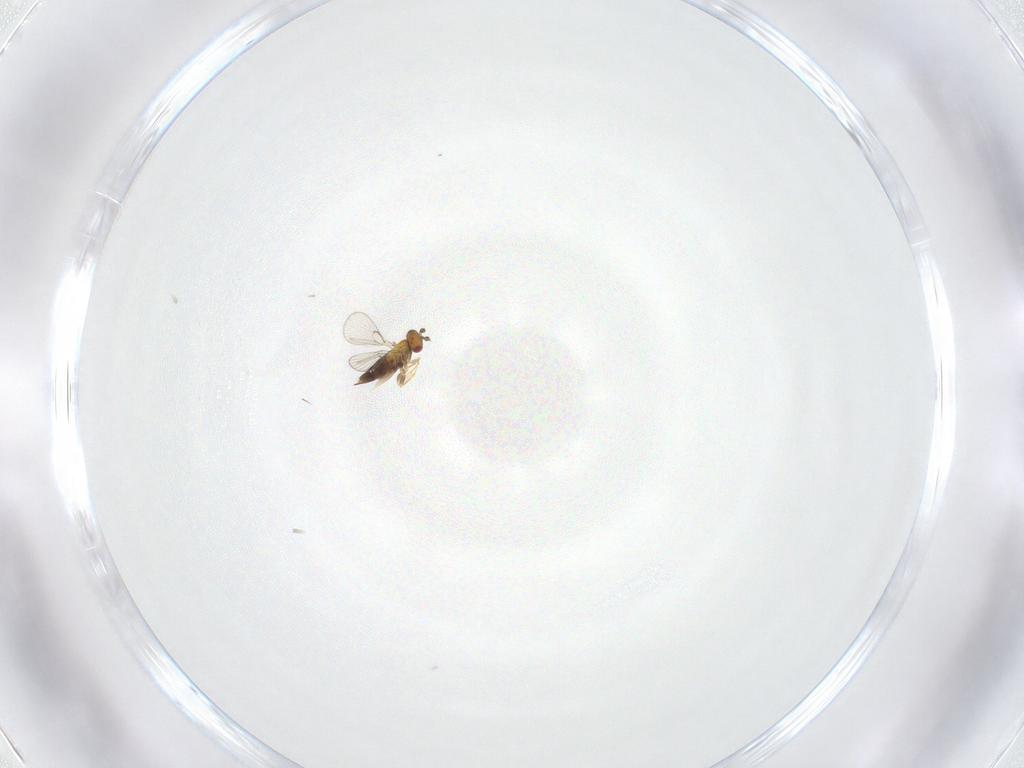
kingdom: Animalia
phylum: Arthropoda
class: Insecta
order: Hymenoptera
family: Trichogrammatidae
